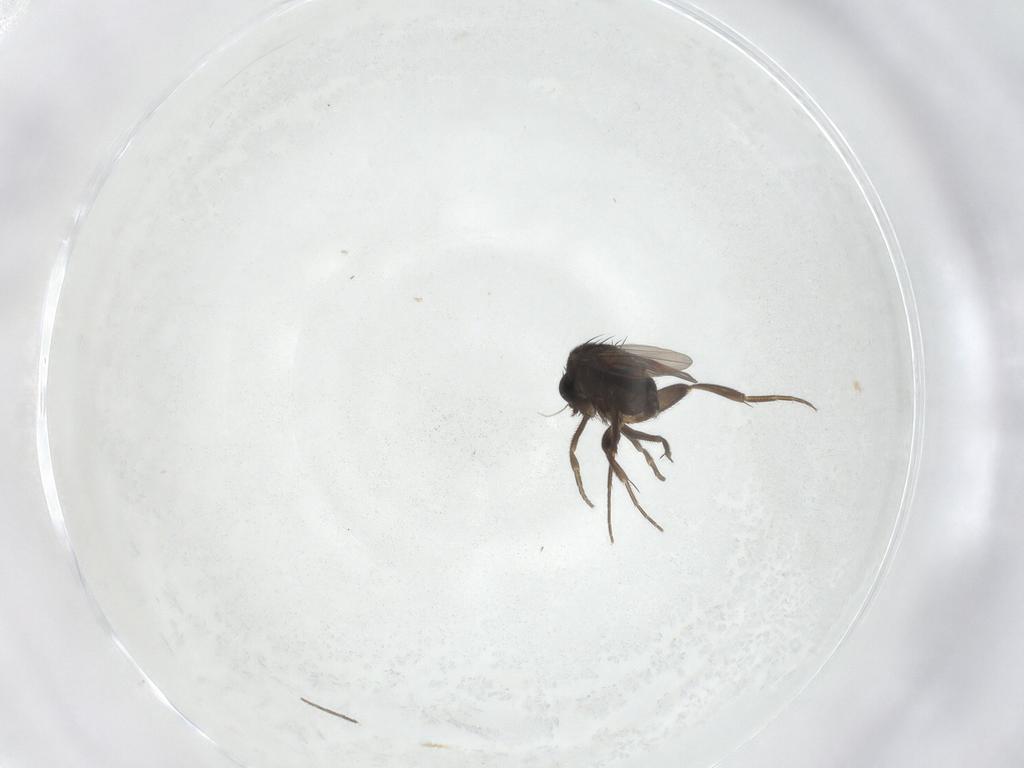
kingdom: Animalia
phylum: Arthropoda
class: Insecta
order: Diptera
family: Phoridae
